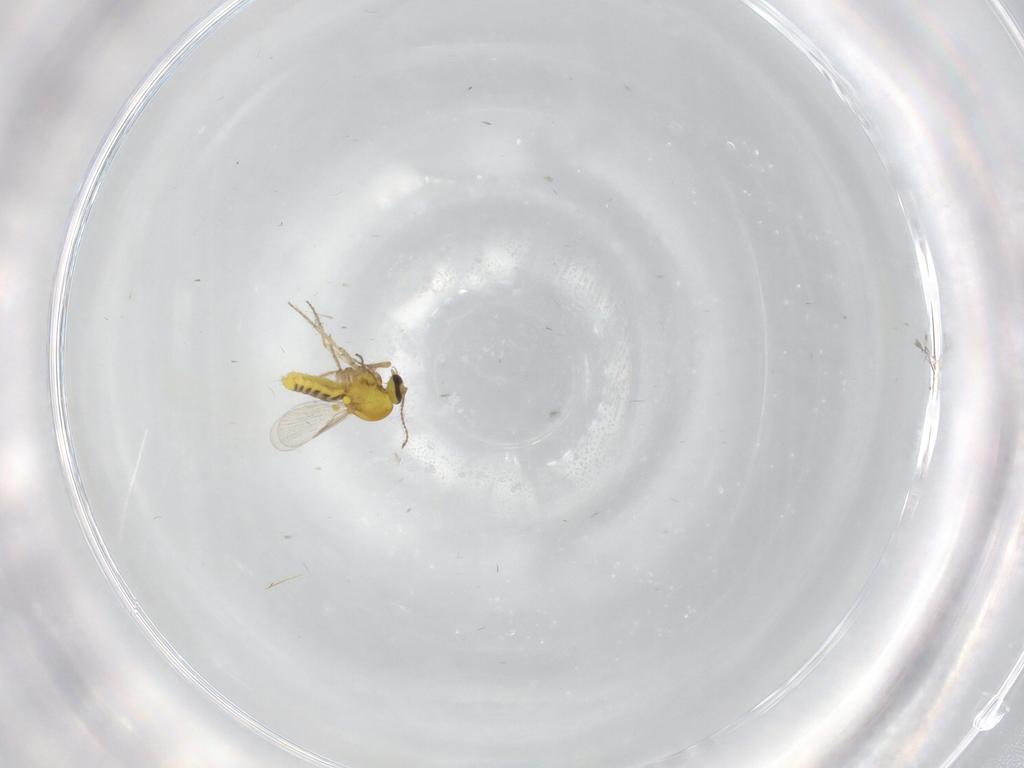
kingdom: Animalia
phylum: Arthropoda
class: Insecta
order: Diptera
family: Ceratopogonidae
